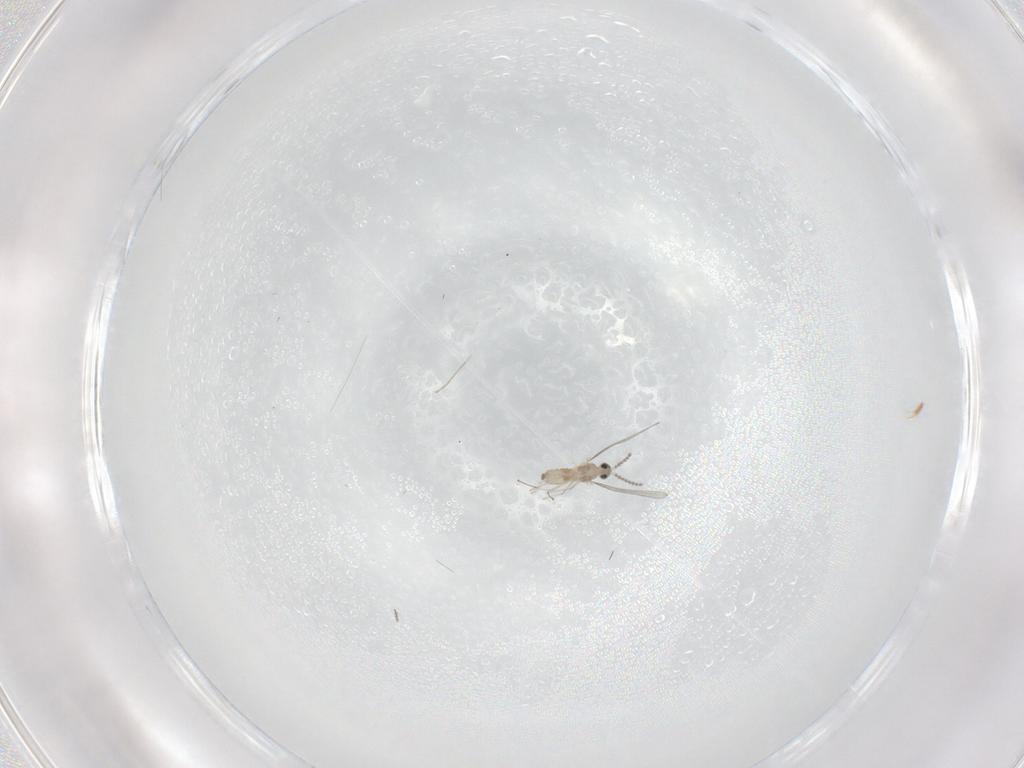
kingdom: Animalia
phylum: Arthropoda
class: Insecta
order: Diptera
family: Cecidomyiidae
